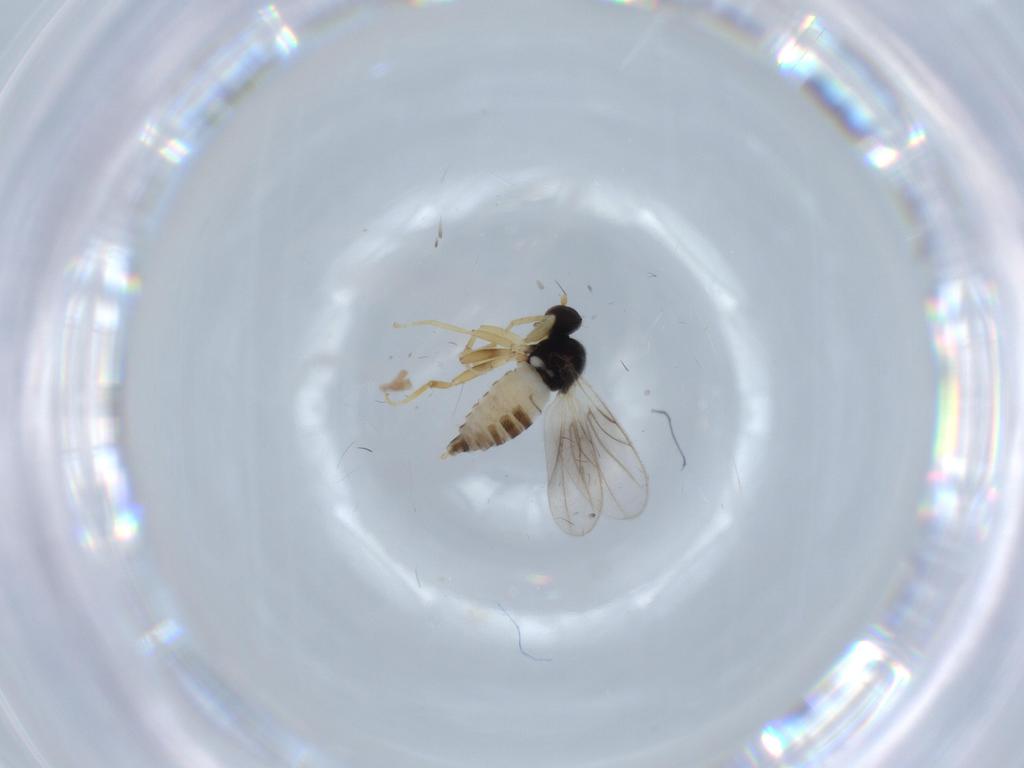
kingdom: Animalia
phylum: Arthropoda
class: Insecta
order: Diptera
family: Hybotidae
